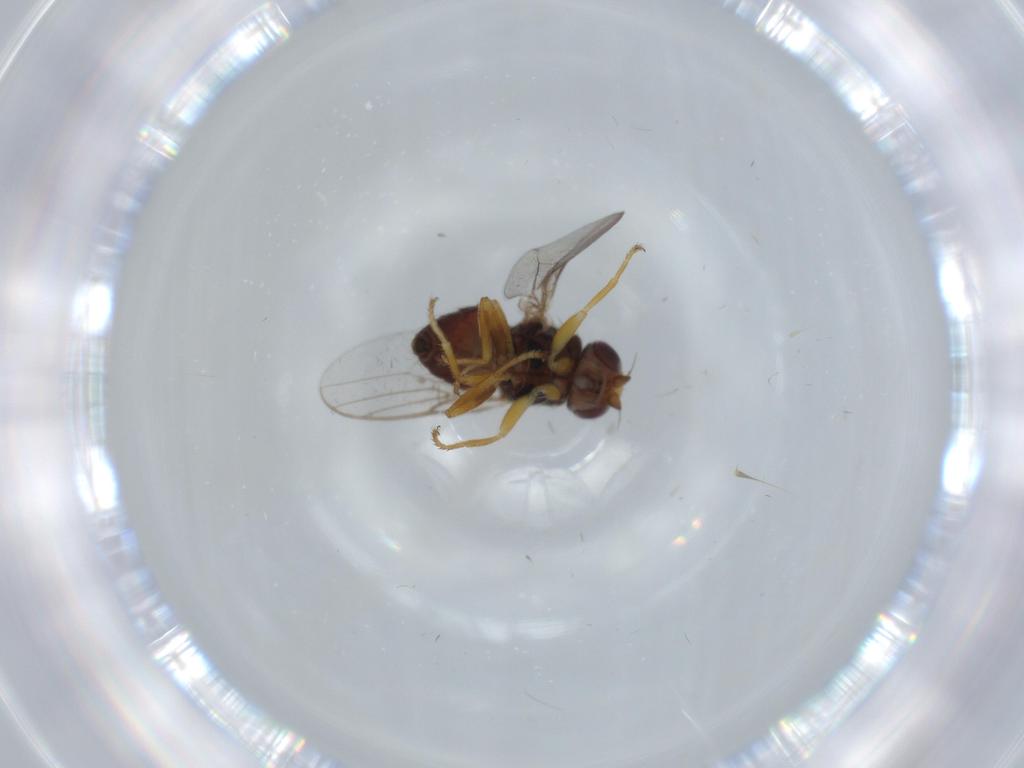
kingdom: Animalia
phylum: Arthropoda
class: Insecta
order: Diptera
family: Chloropidae
